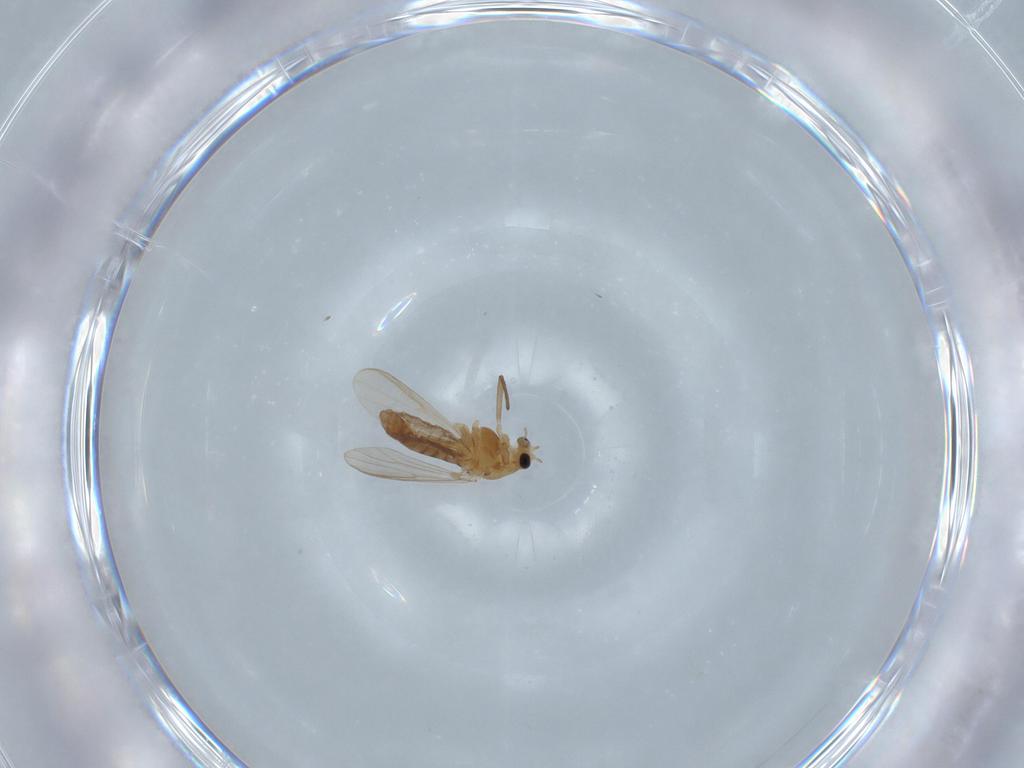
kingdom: Animalia
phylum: Arthropoda
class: Insecta
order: Diptera
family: Chironomidae
